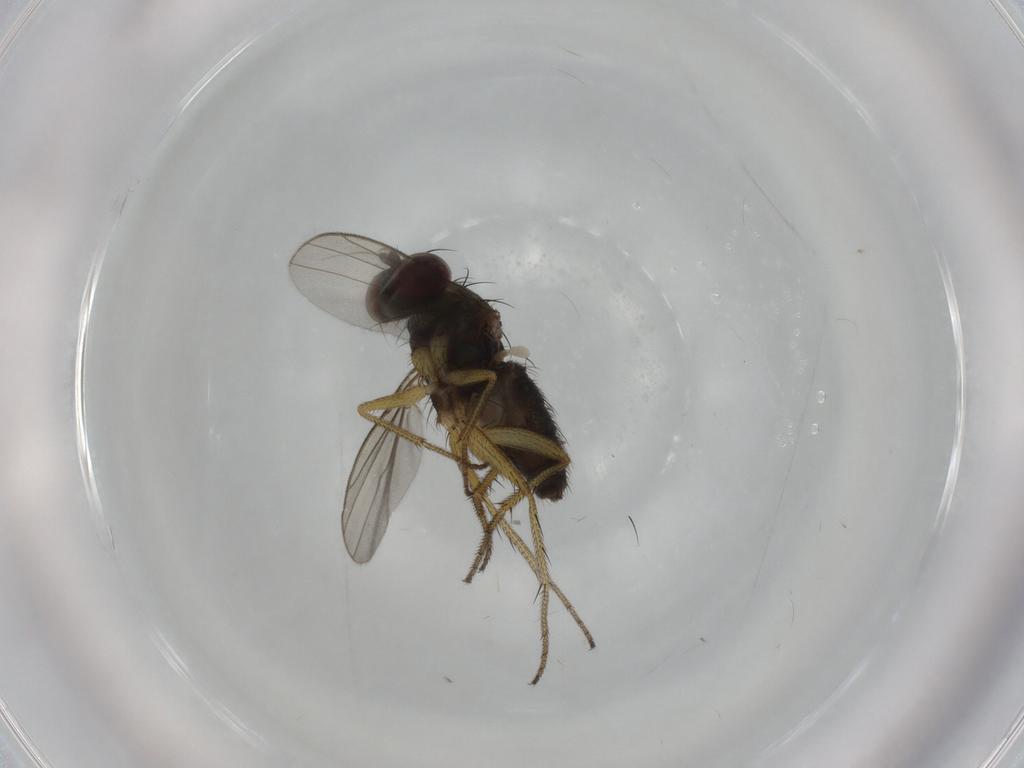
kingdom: Animalia
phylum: Arthropoda
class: Insecta
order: Diptera
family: Dolichopodidae
